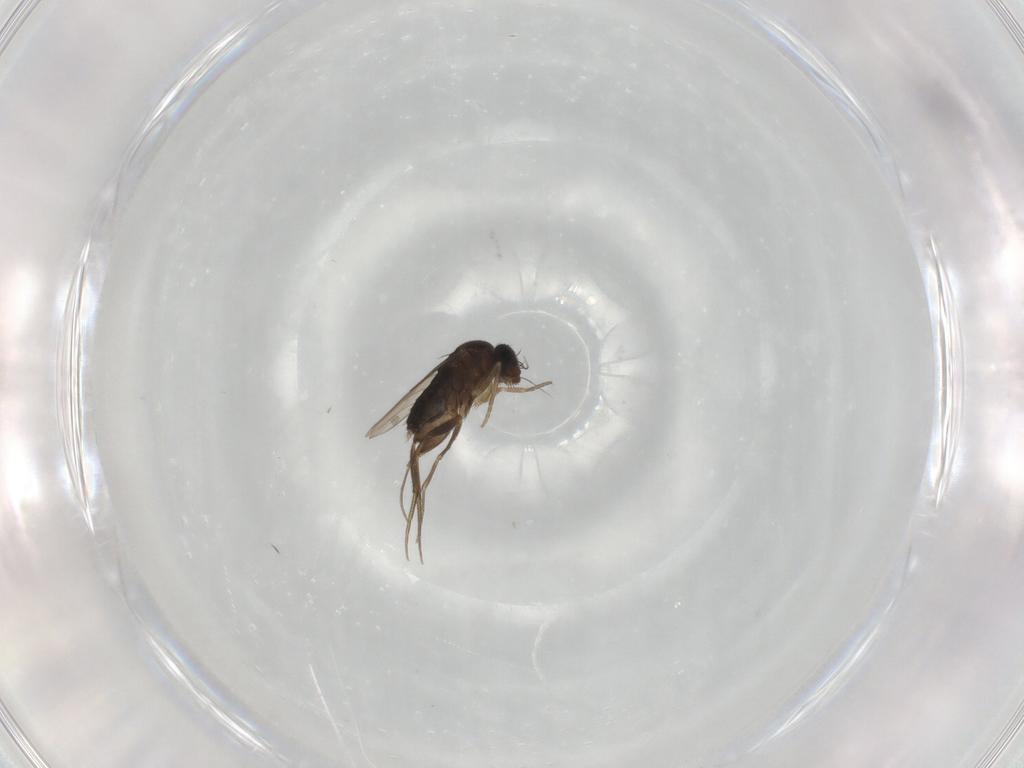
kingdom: Animalia
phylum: Arthropoda
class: Insecta
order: Diptera
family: Phoridae
